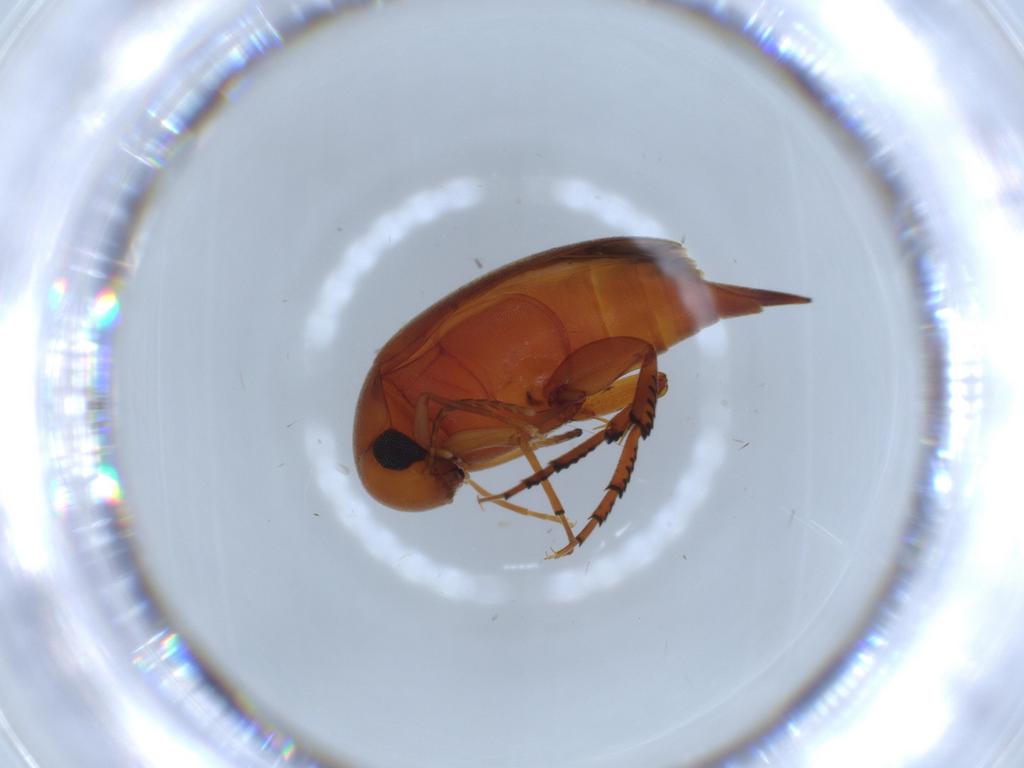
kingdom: Animalia
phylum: Arthropoda
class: Insecta
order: Coleoptera
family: Mordellidae
